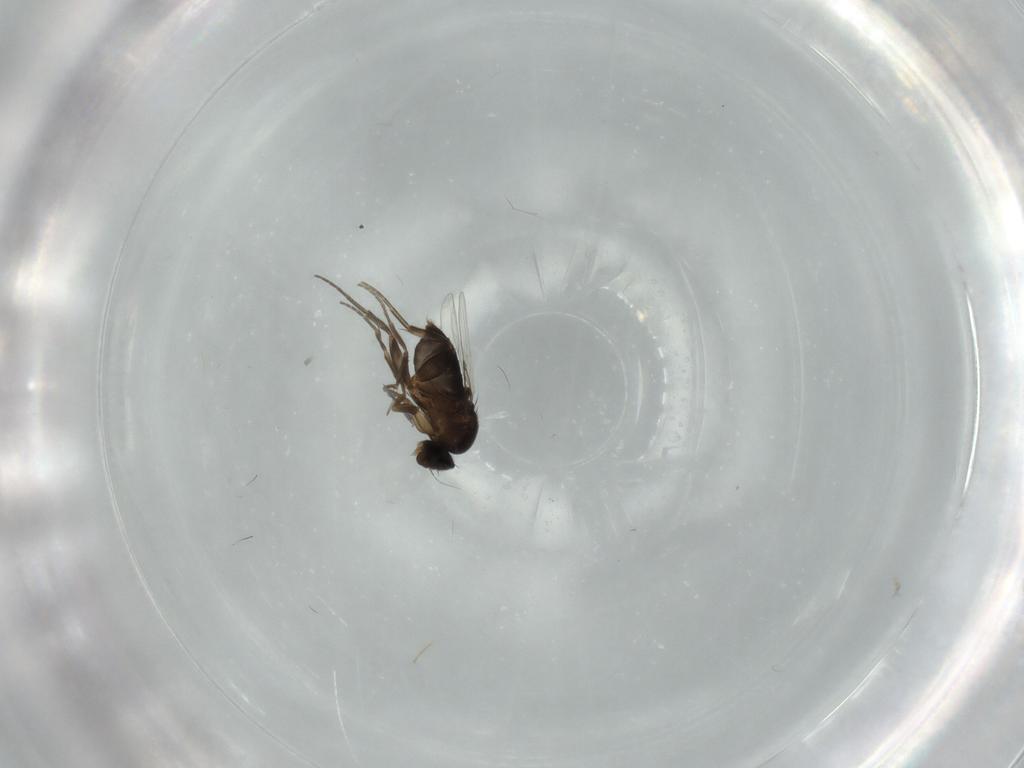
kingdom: Animalia
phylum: Arthropoda
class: Insecta
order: Diptera
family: Phoridae
